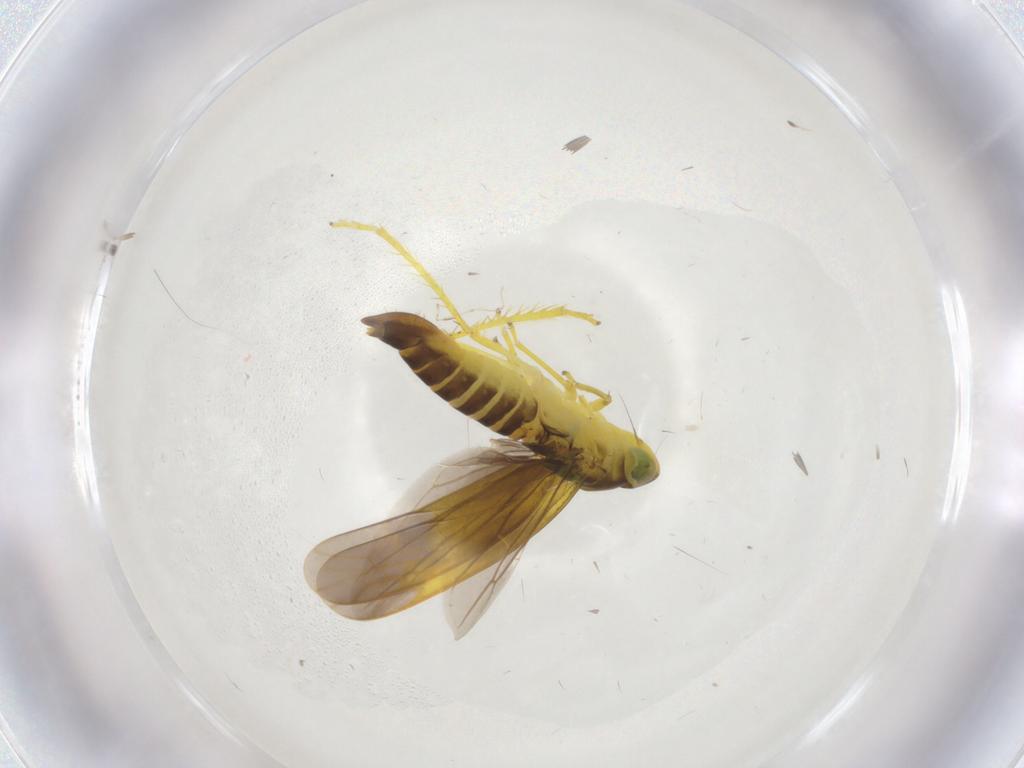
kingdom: Animalia
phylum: Arthropoda
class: Insecta
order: Hemiptera
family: Cicadellidae
